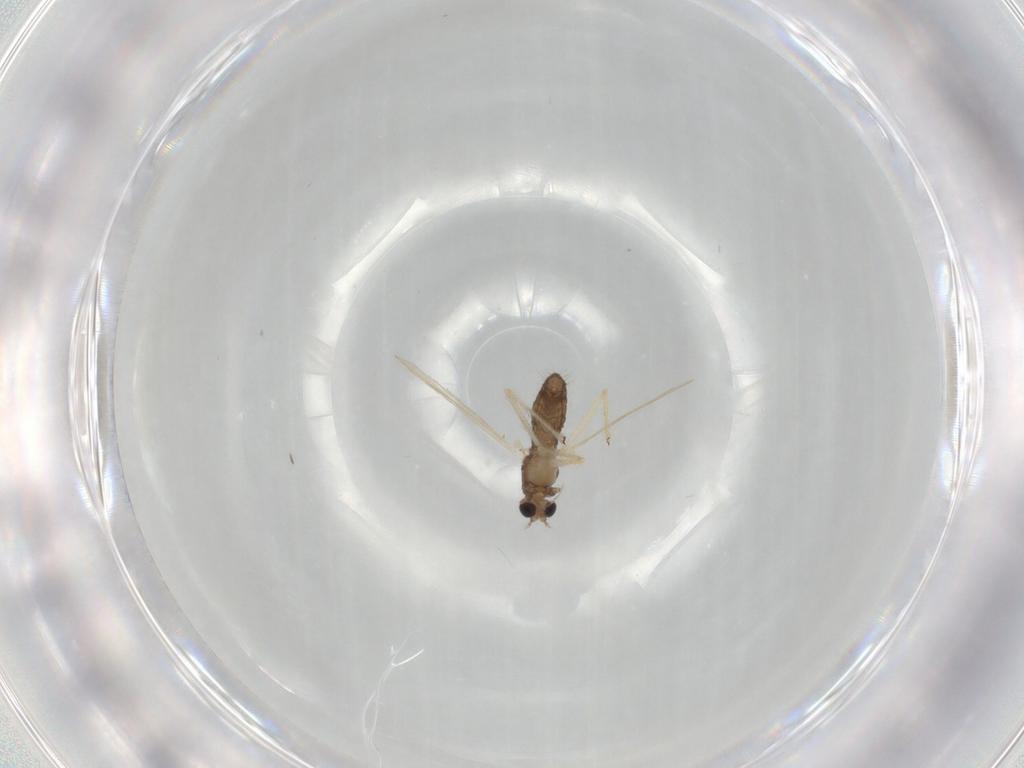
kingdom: Animalia
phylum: Arthropoda
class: Insecta
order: Diptera
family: Chironomidae
